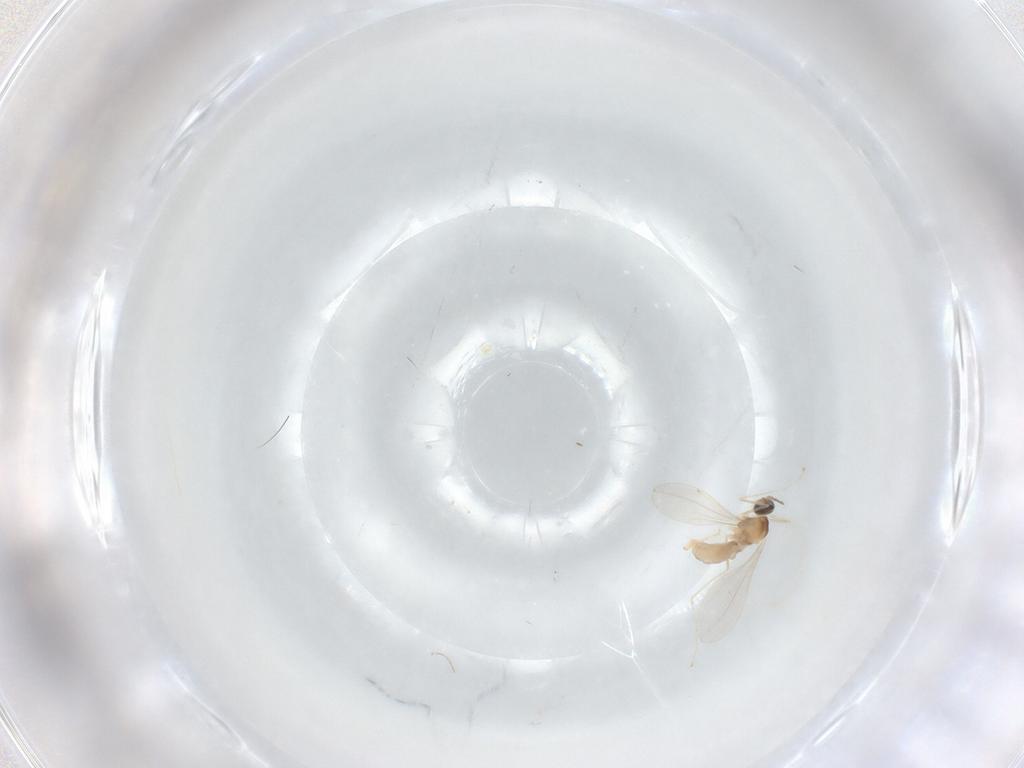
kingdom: Animalia
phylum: Arthropoda
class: Insecta
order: Diptera
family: Cecidomyiidae
